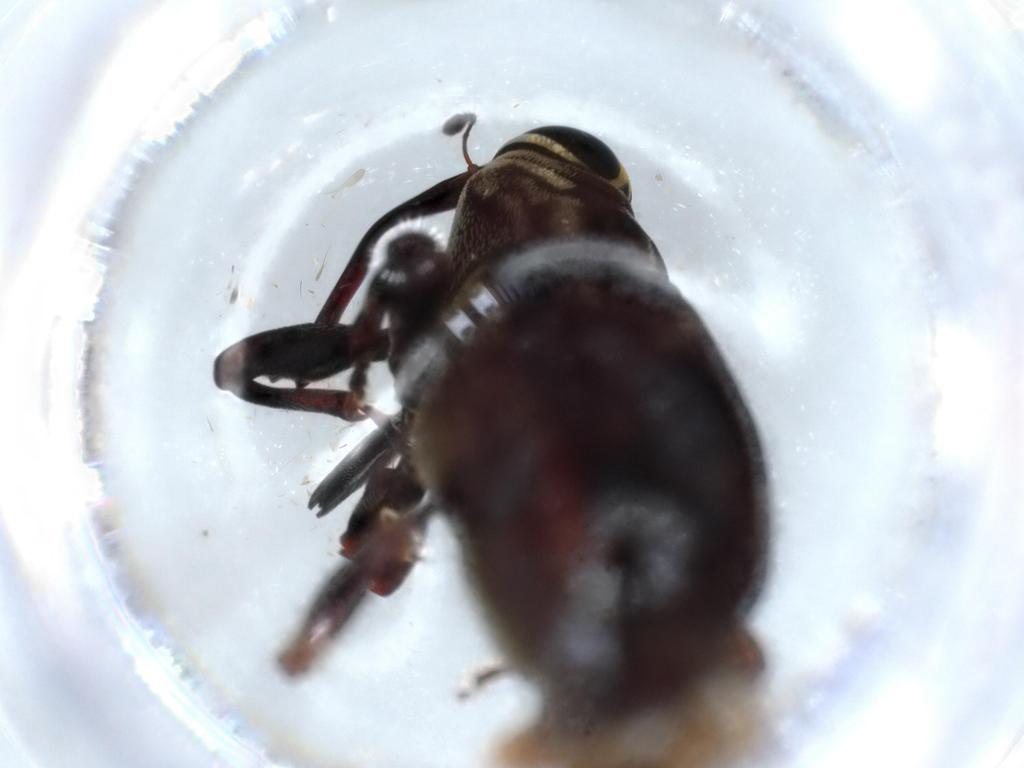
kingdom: Animalia
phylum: Arthropoda
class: Insecta
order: Coleoptera
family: Chrysomelidae
